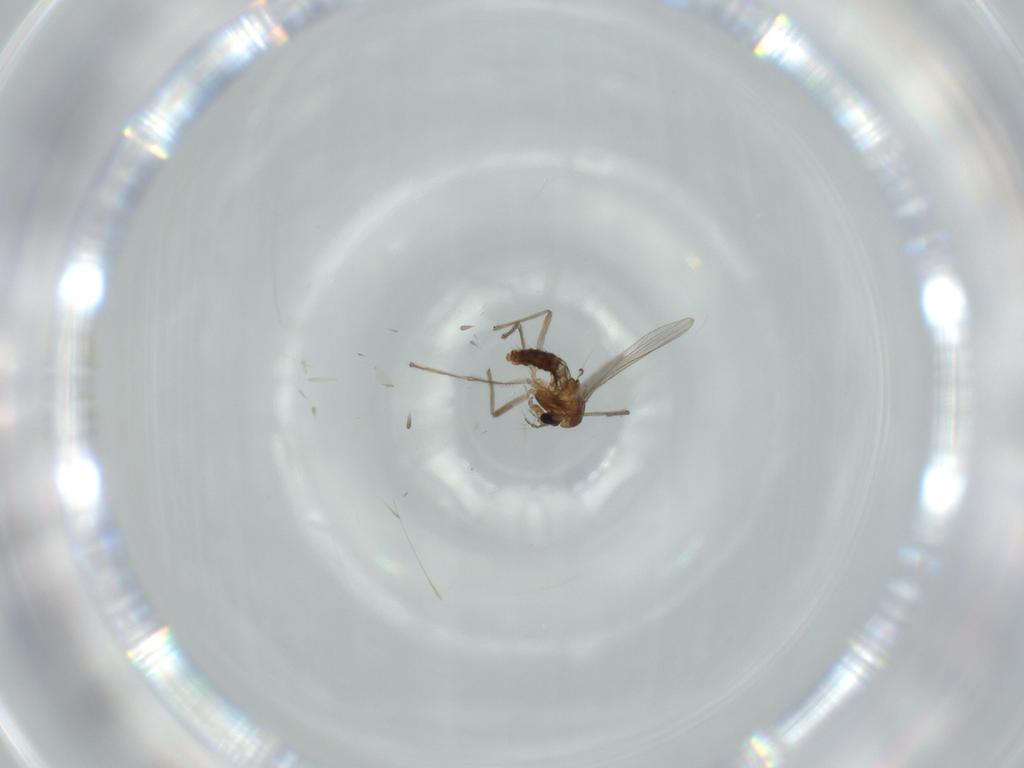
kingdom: Animalia
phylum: Arthropoda
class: Insecta
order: Diptera
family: Chironomidae
